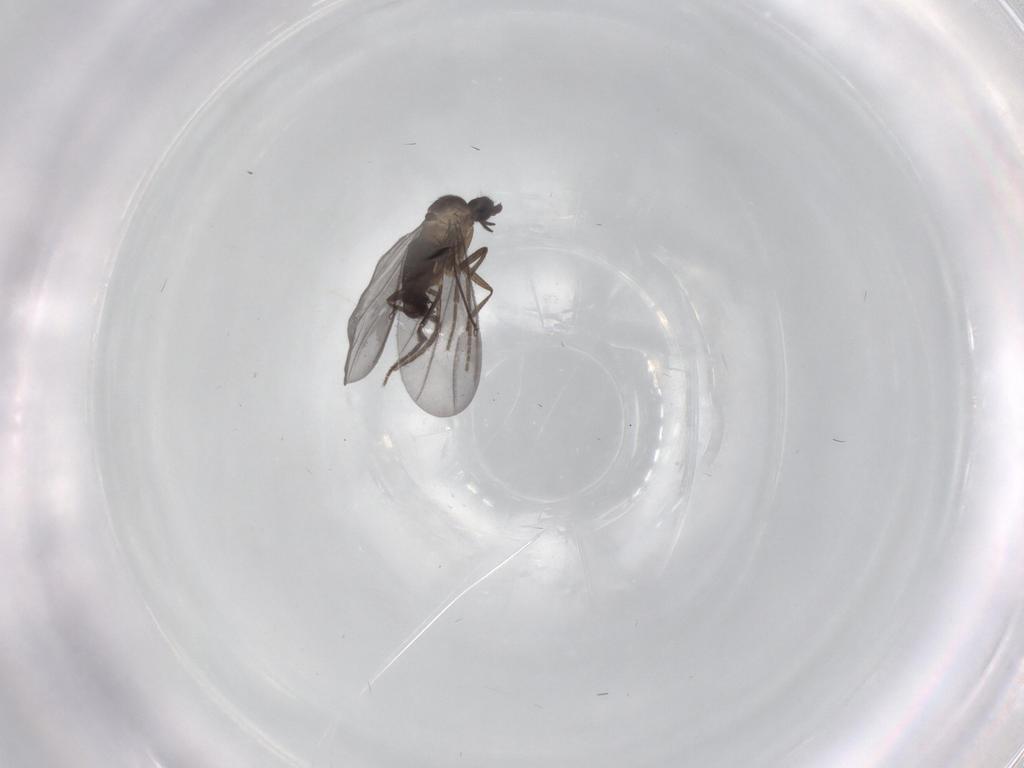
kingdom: Animalia
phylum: Arthropoda
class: Insecta
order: Diptera
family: Phoridae
